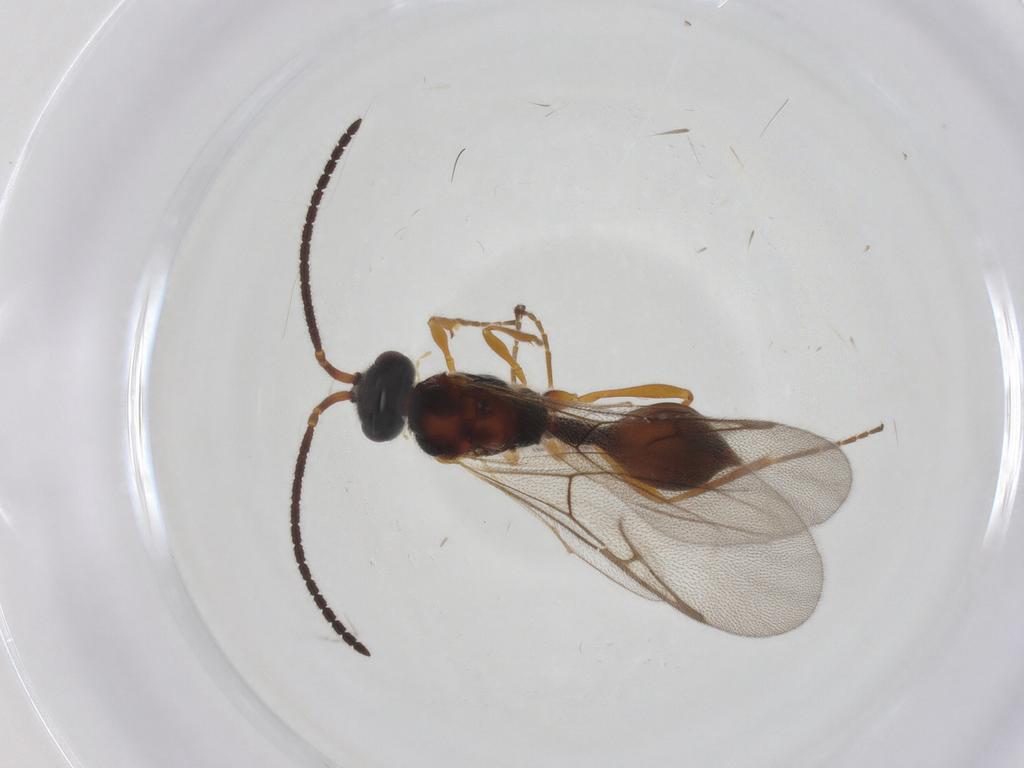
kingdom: Animalia
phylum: Arthropoda
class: Insecta
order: Hymenoptera
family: Diapriidae
